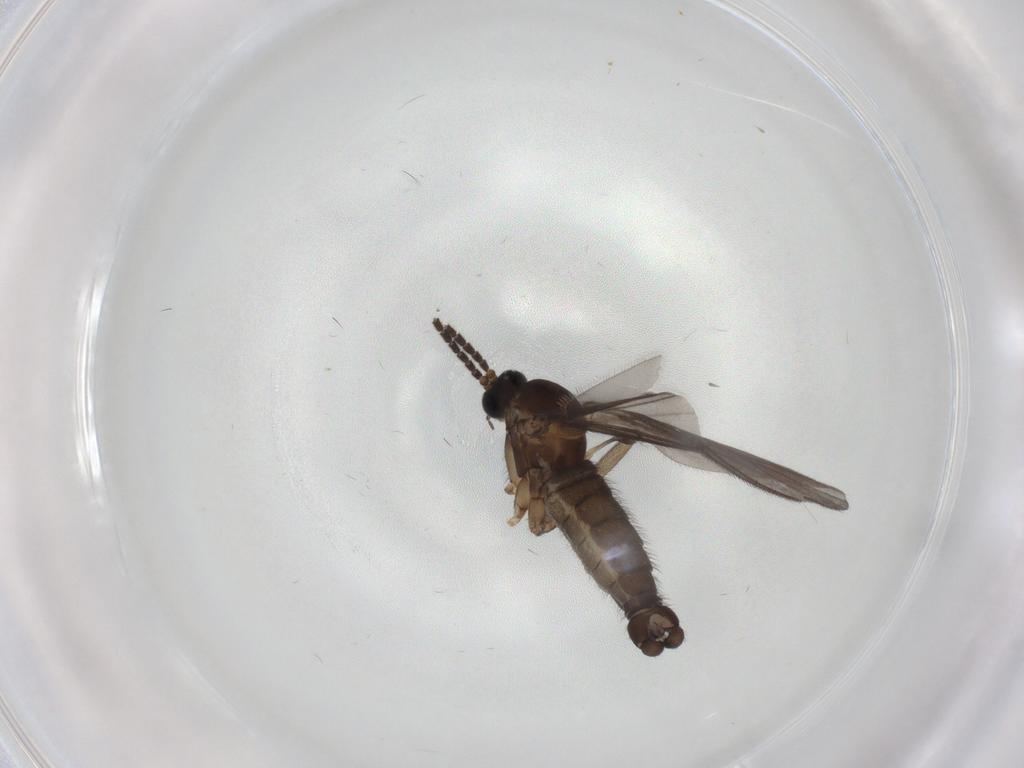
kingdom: Animalia
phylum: Arthropoda
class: Insecta
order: Diptera
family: Sciaridae
